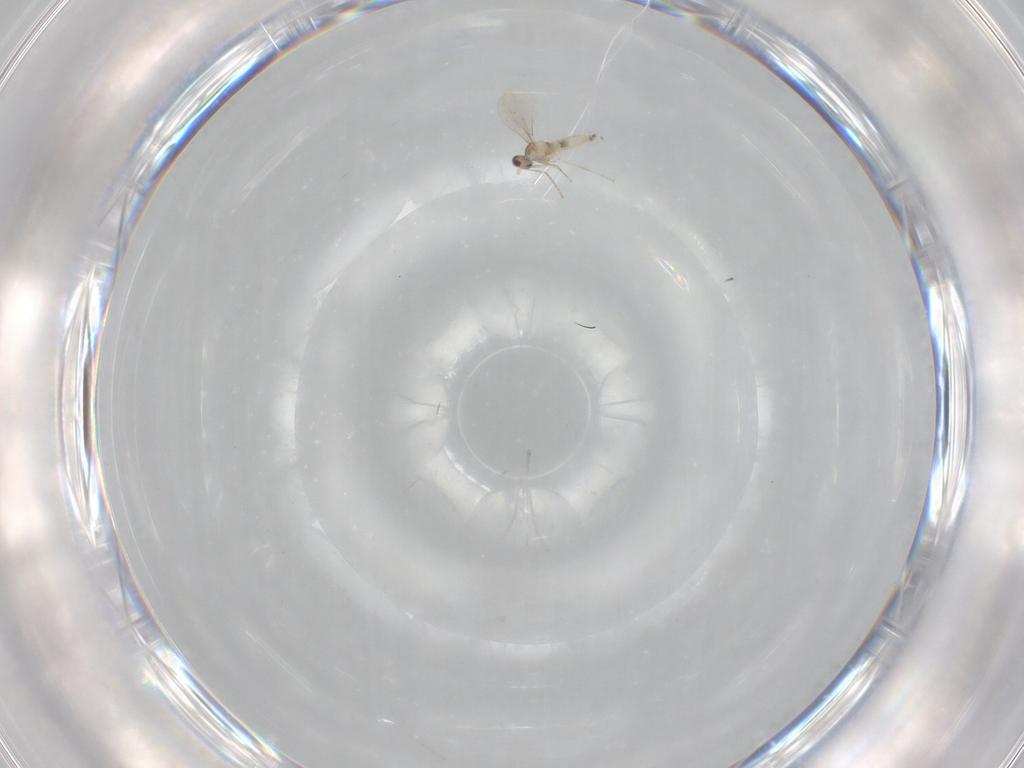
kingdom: Animalia
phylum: Arthropoda
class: Insecta
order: Diptera
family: Cecidomyiidae
